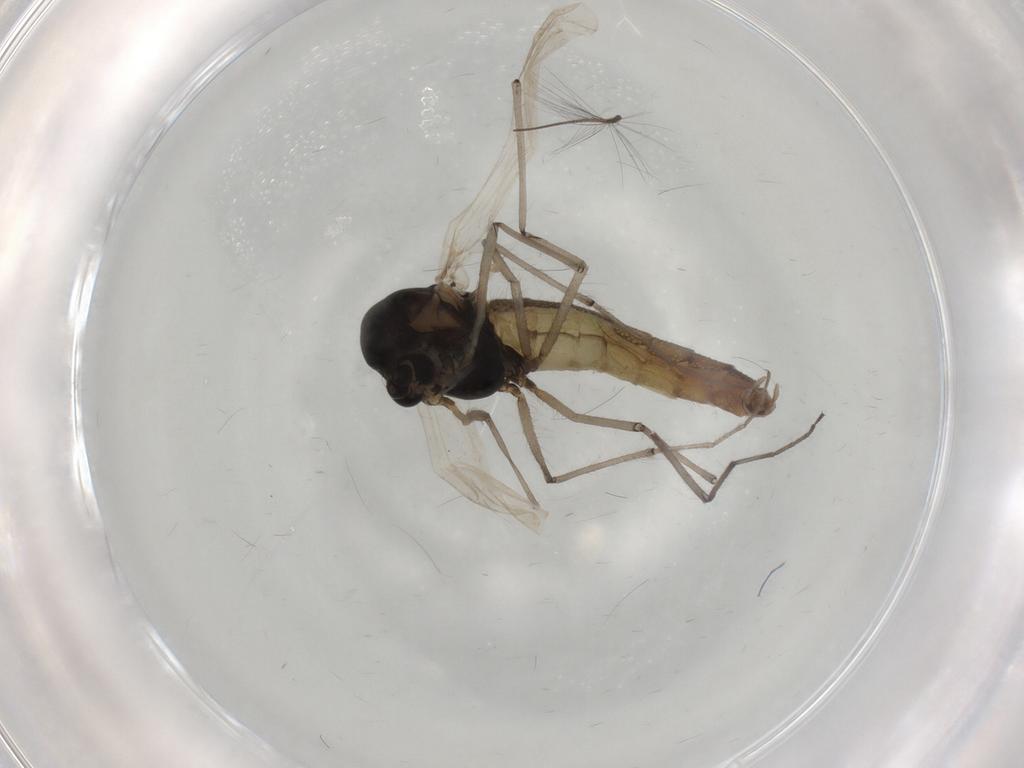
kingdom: Animalia
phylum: Arthropoda
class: Insecta
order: Diptera
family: Chironomidae
